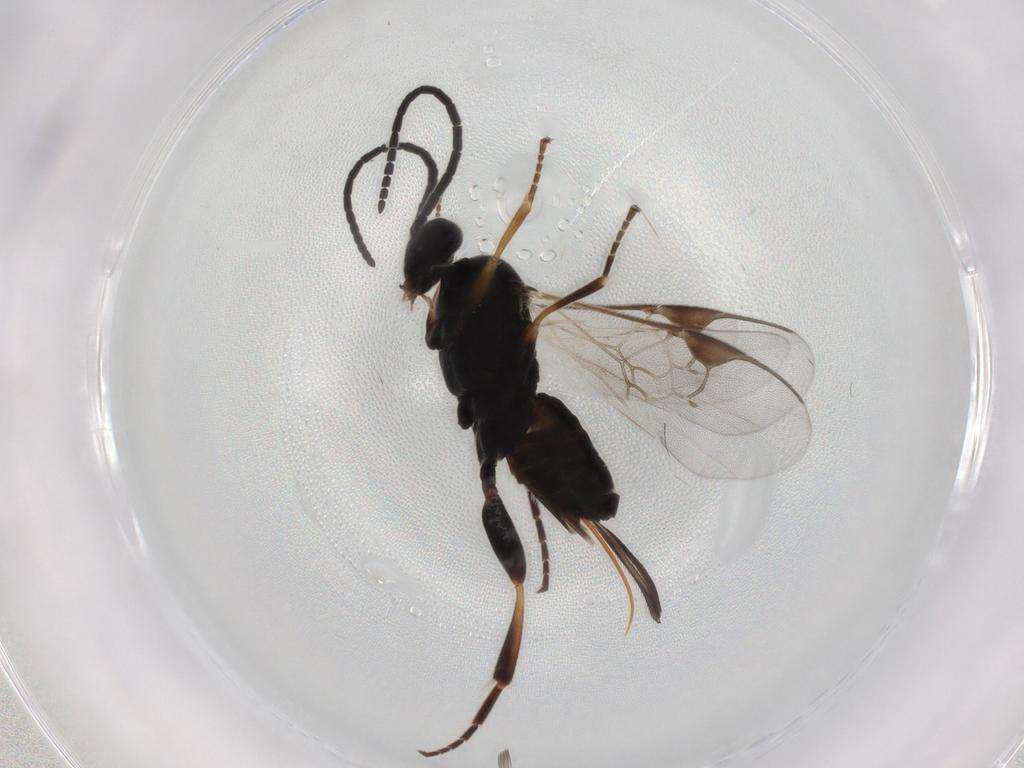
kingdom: Animalia
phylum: Arthropoda
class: Insecta
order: Hymenoptera
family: Braconidae
